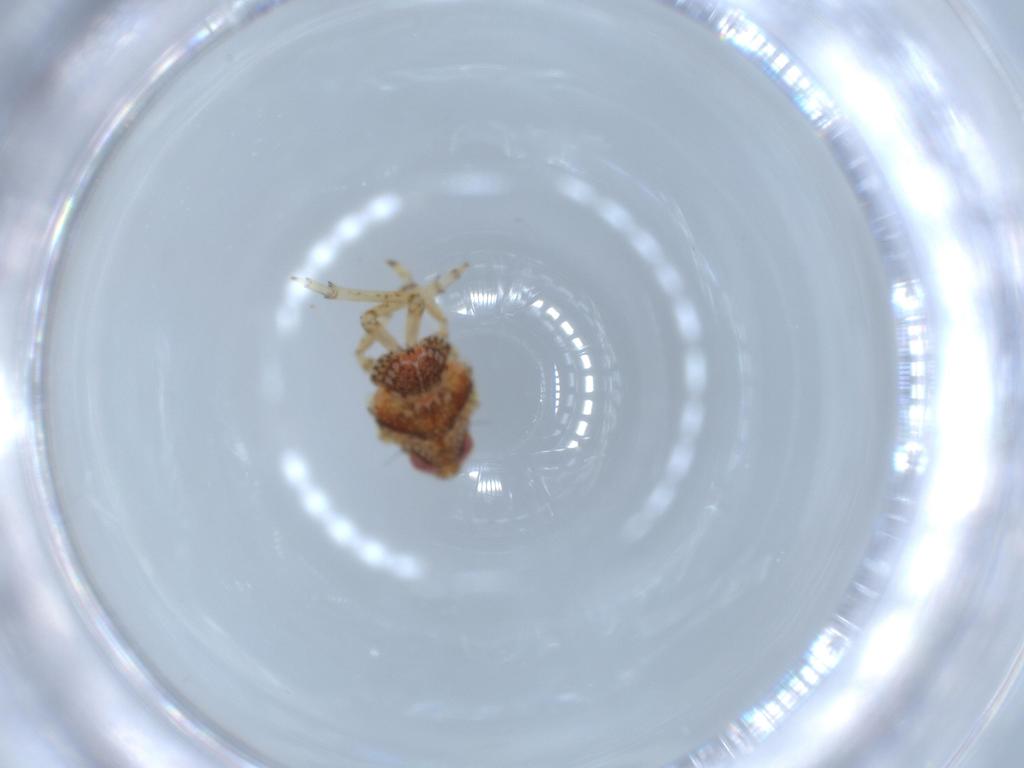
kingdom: Animalia
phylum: Arthropoda
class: Insecta
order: Hemiptera
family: Issidae
